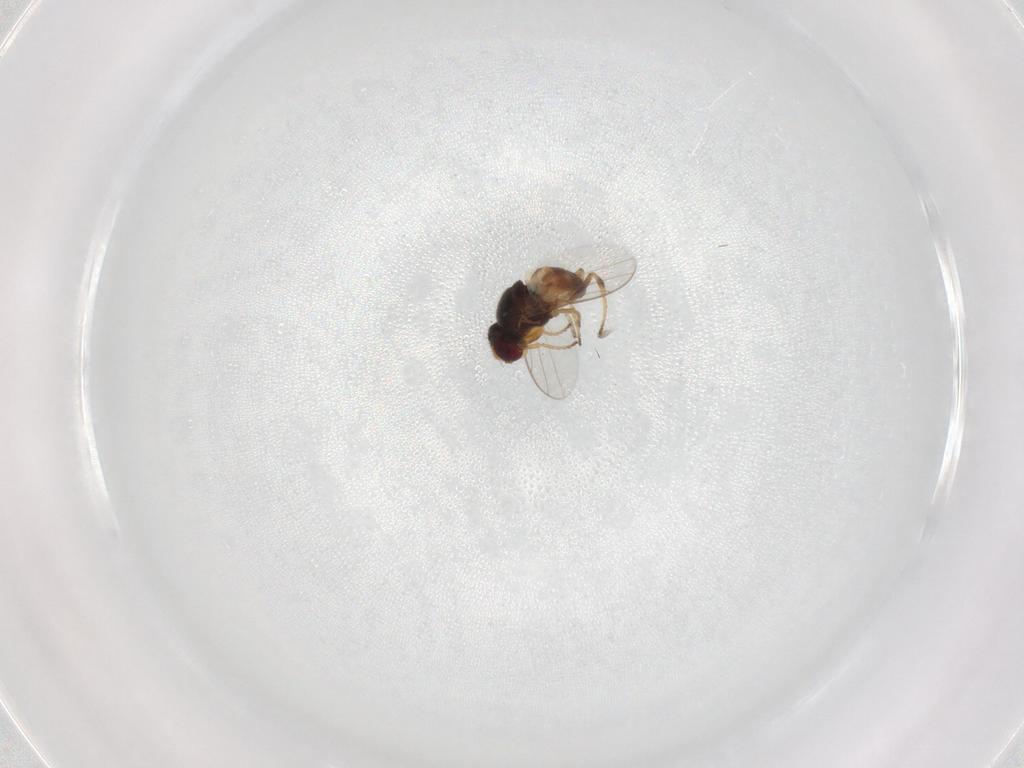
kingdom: Animalia
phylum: Arthropoda
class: Insecta
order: Diptera
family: Chloropidae
